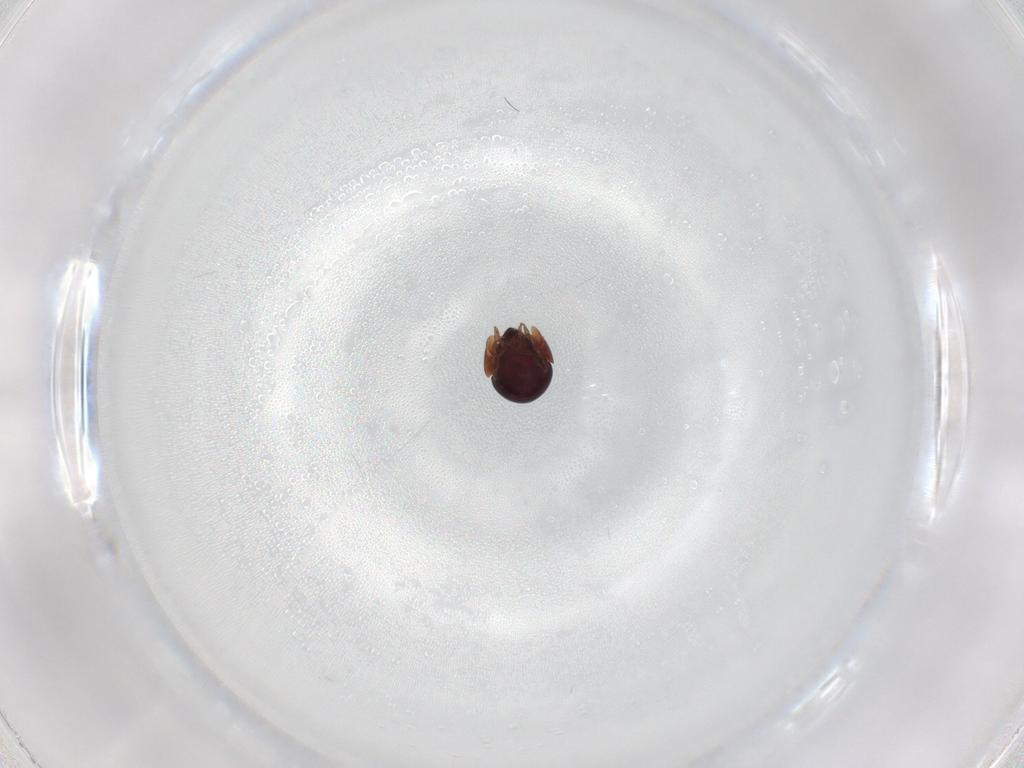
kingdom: Animalia
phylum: Arthropoda
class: Arachnida
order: Sarcoptiformes
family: Galumnidae
